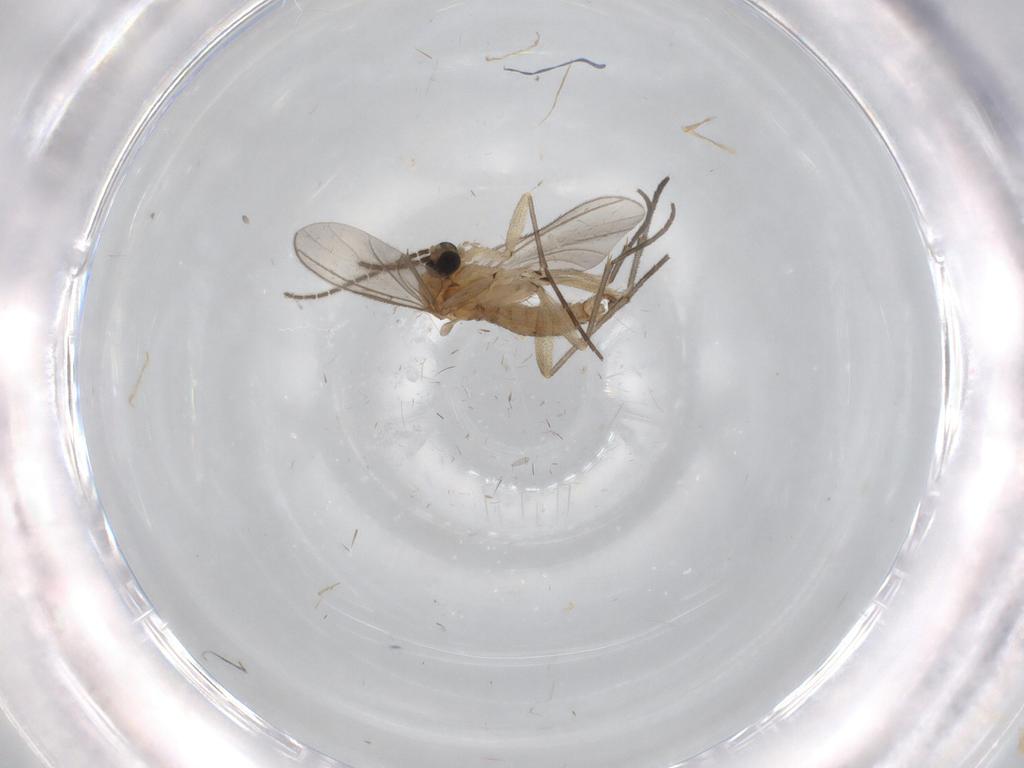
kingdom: Animalia
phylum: Arthropoda
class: Insecta
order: Diptera
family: Sciaridae
